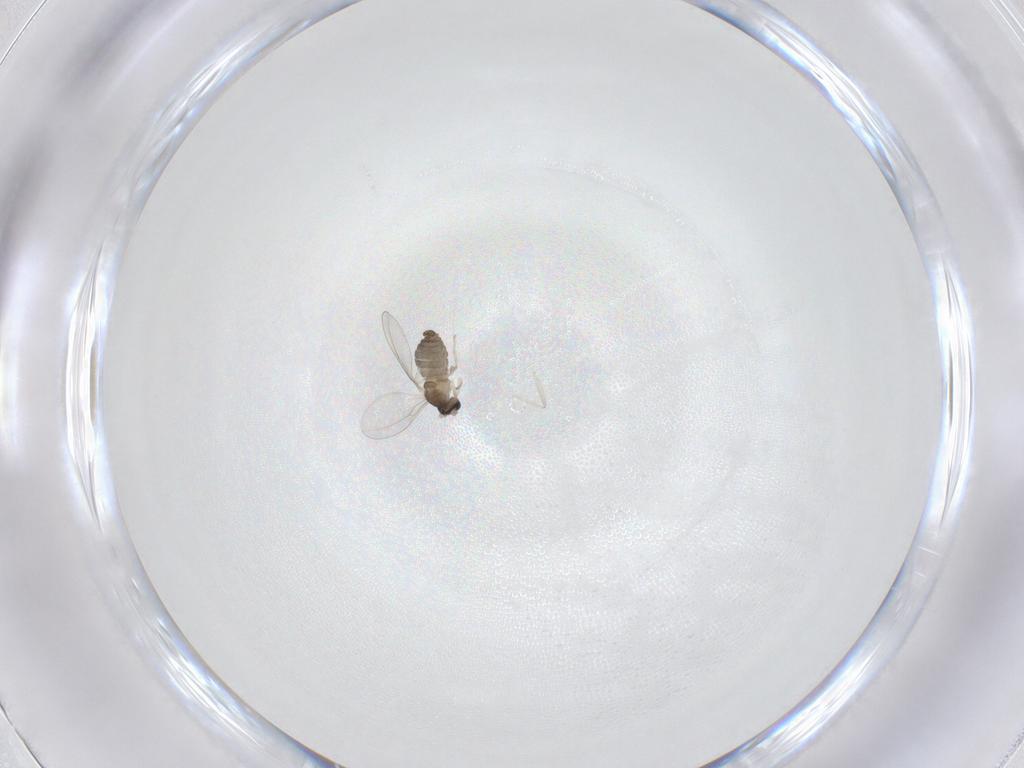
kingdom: Animalia
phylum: Arthropoda
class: Insecta
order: Diptera
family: Cecidomyiidae
